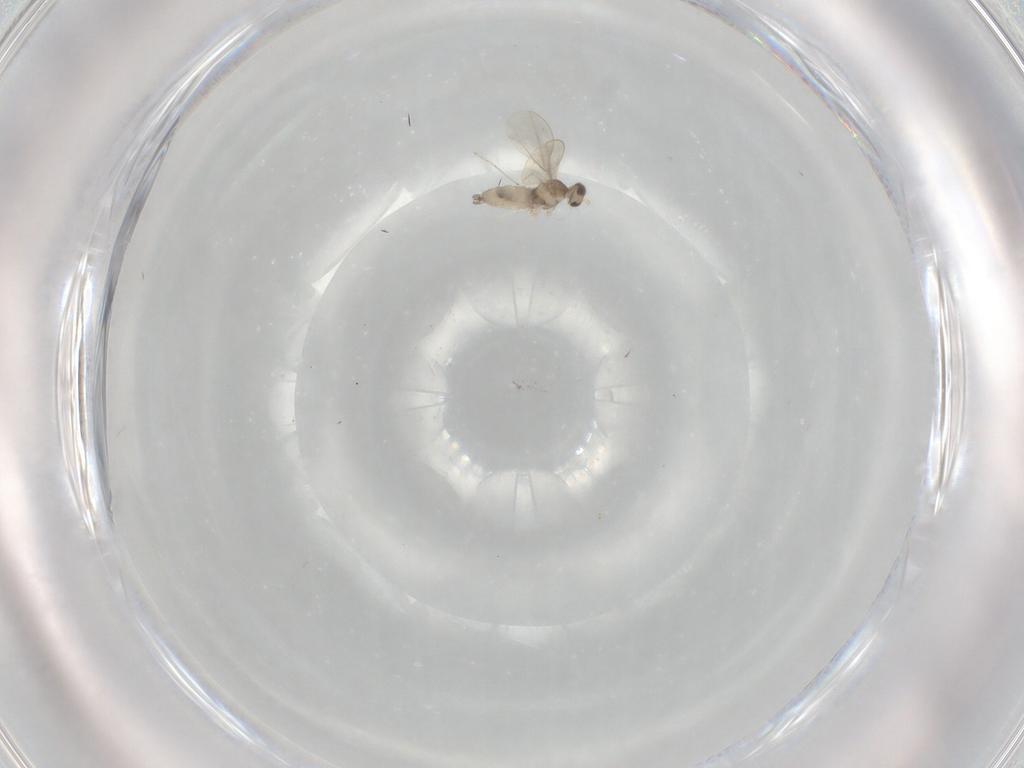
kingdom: Animalia
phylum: Arthropoda
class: Insecta
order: Diptera
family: Cecidomyiidae
